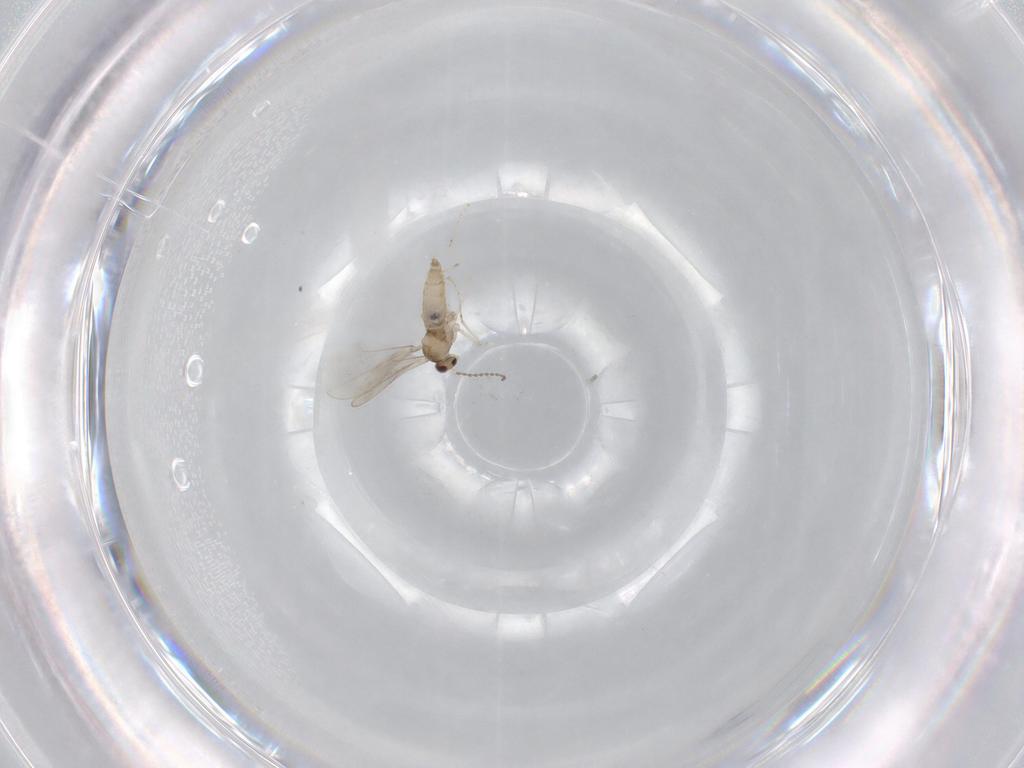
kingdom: Animalia
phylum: Arthropoda
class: Insecta
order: Diptera
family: Cecidomyiidae
